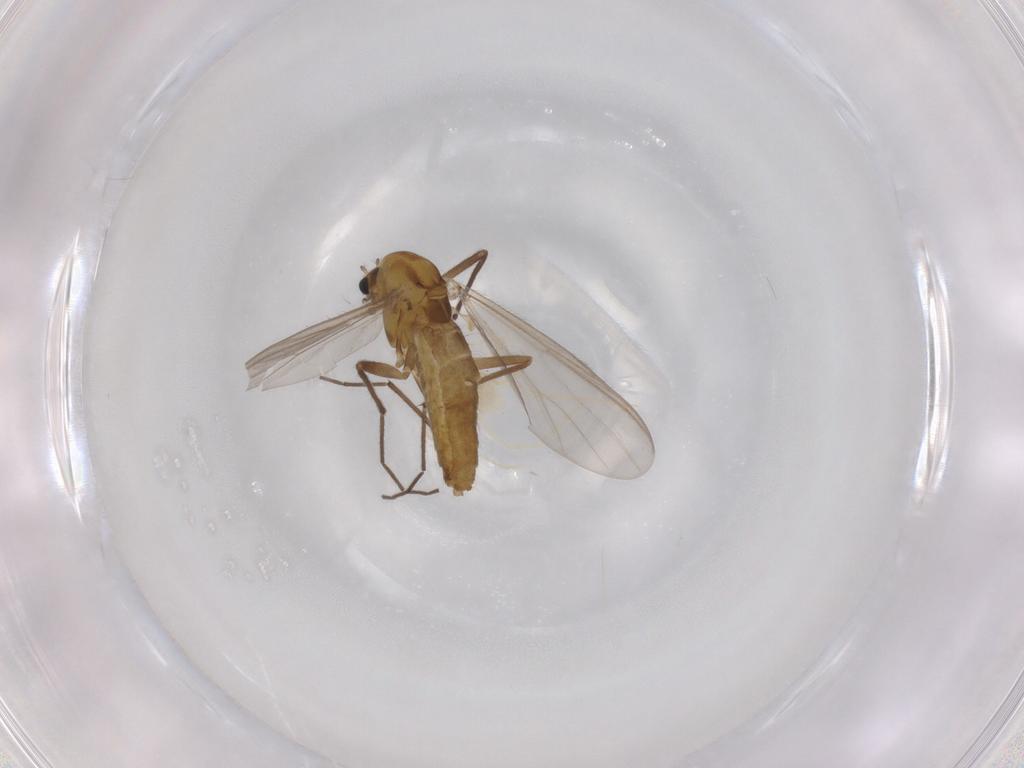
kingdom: Animalia
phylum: Arthropoda
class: Insecta
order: Diptera
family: Chironomidae
